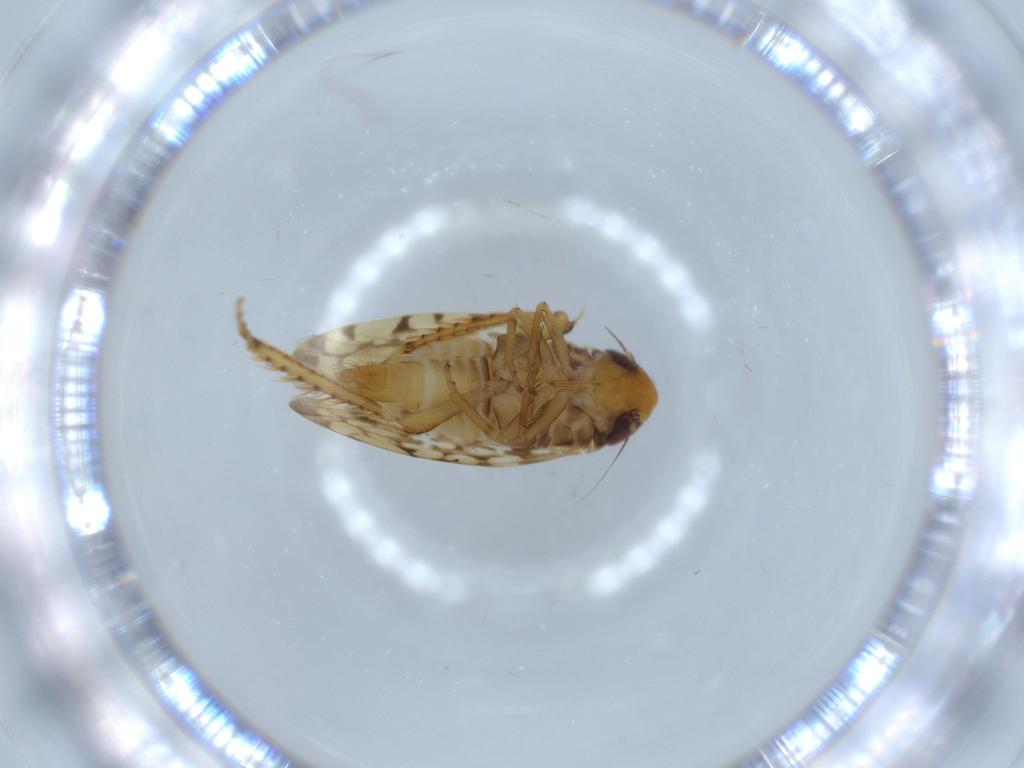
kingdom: Animalia
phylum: Arthropoda
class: Insecta
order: Hemiptera
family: Cicadellidae
